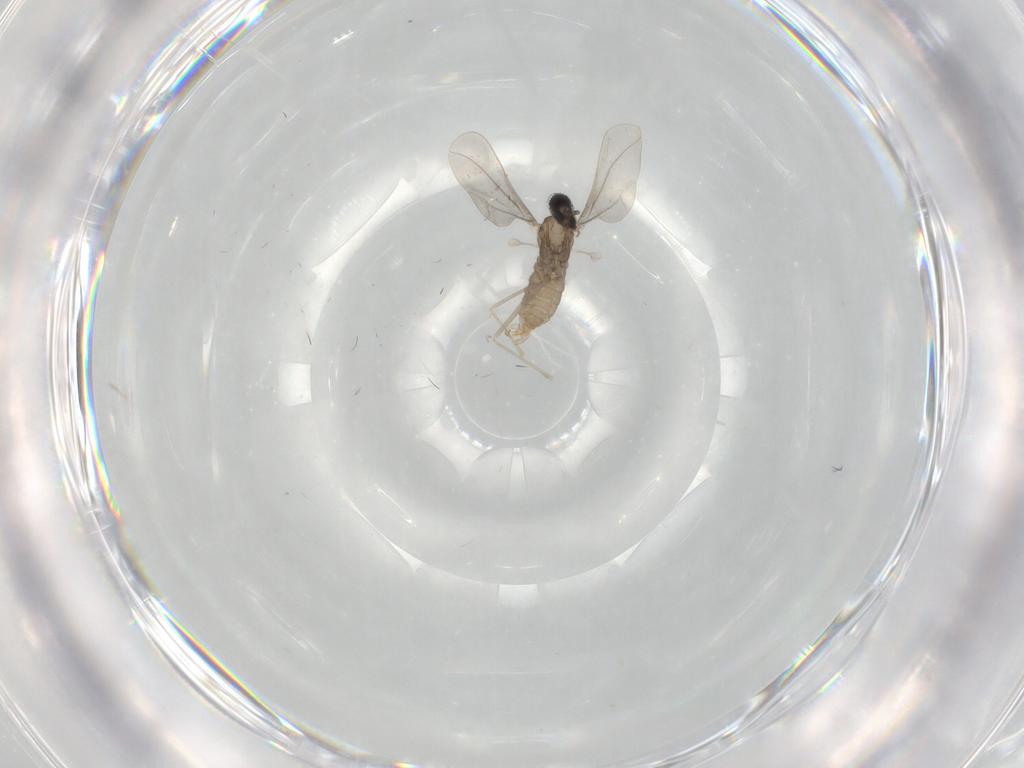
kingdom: Animalia
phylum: Arthropoda
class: Insecta
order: Diptera
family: Cecidomyiidae
